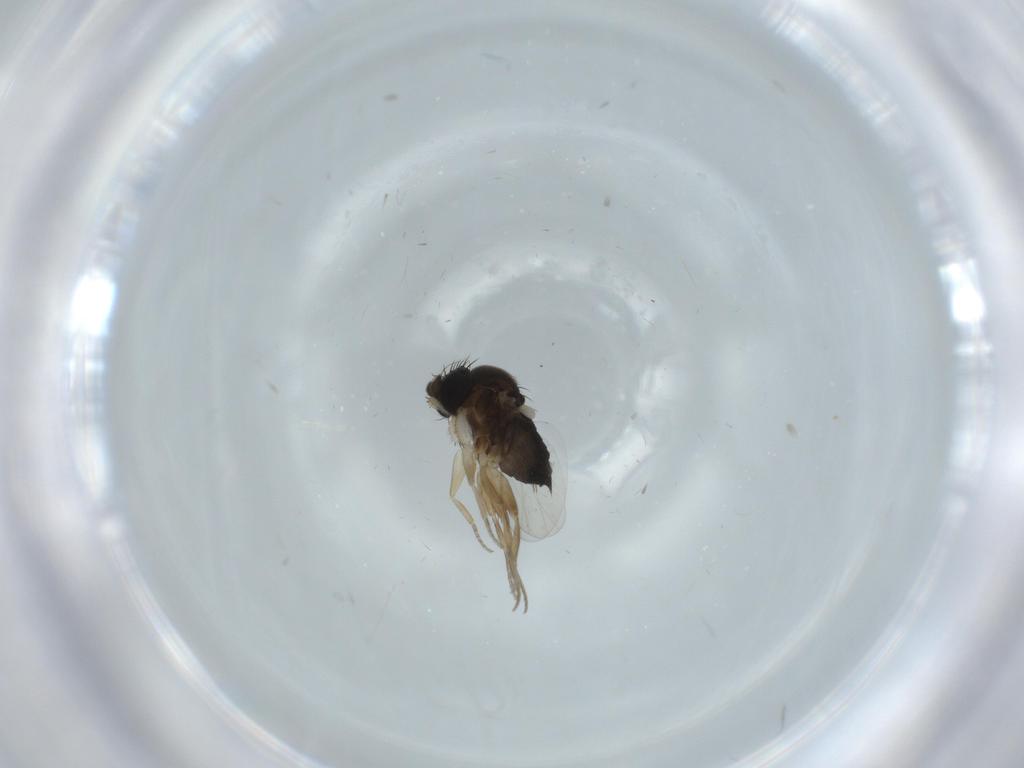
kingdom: Animalia
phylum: Arthropoda
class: Insecta
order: Diptera
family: Phoridae
